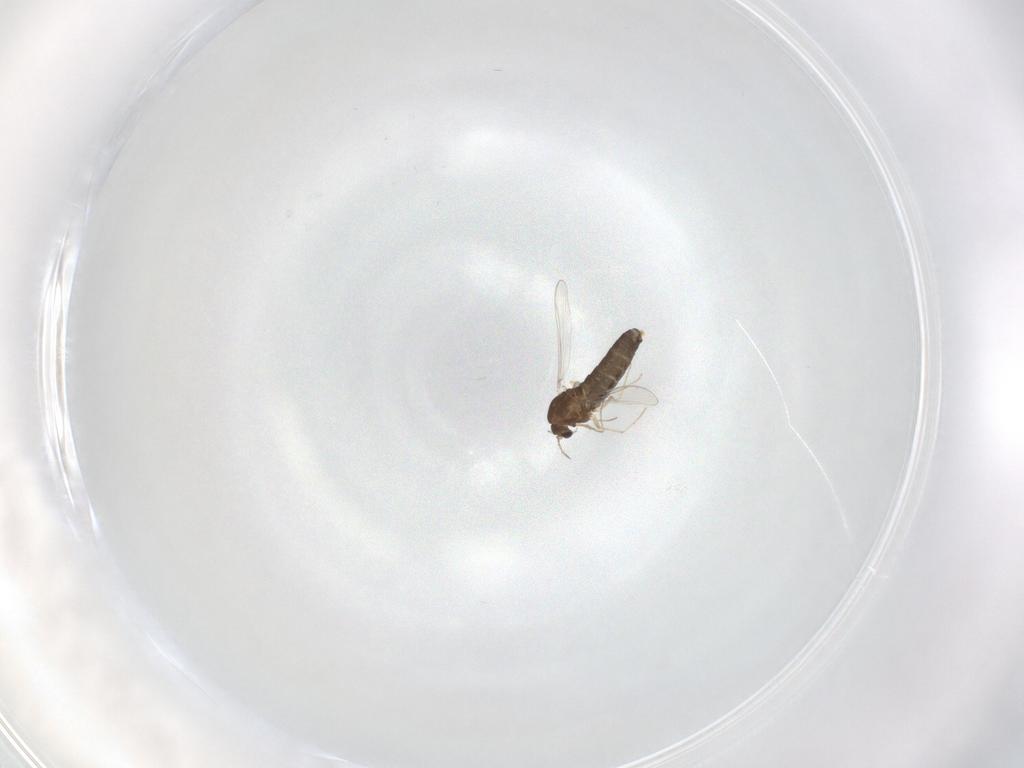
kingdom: Animalia
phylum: Arthropoda
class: Insecta
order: Diptera
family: Chironomidae
